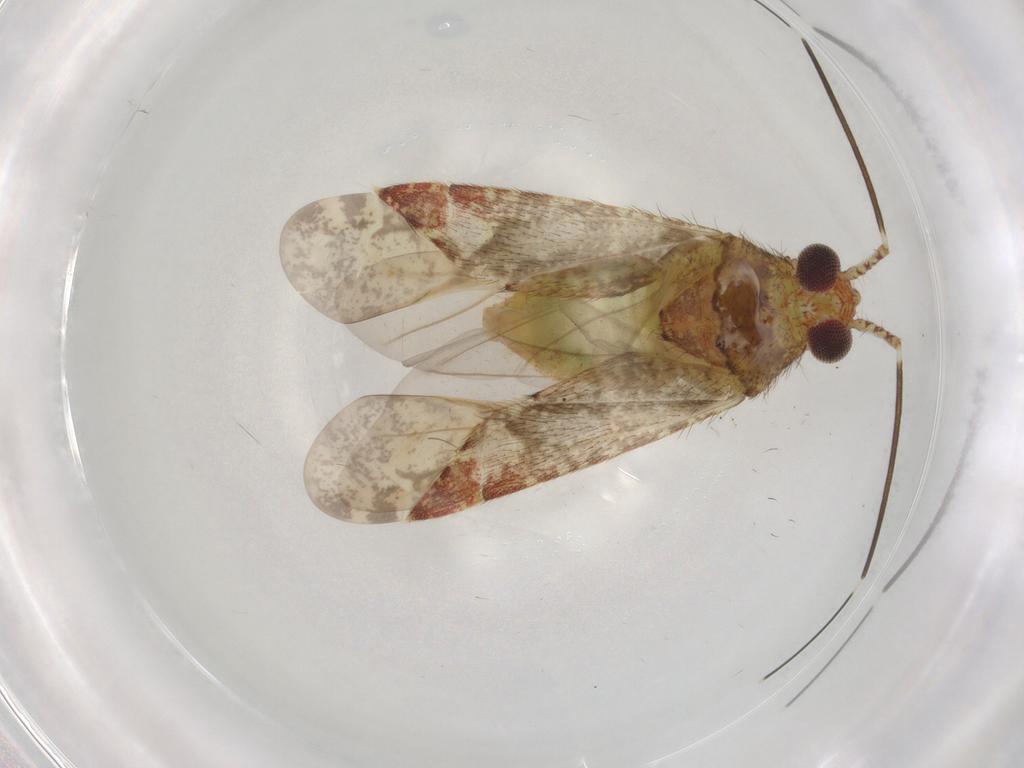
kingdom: Animalia
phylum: Arthropoda
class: Insecta
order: Hemiptera
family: Miridae
